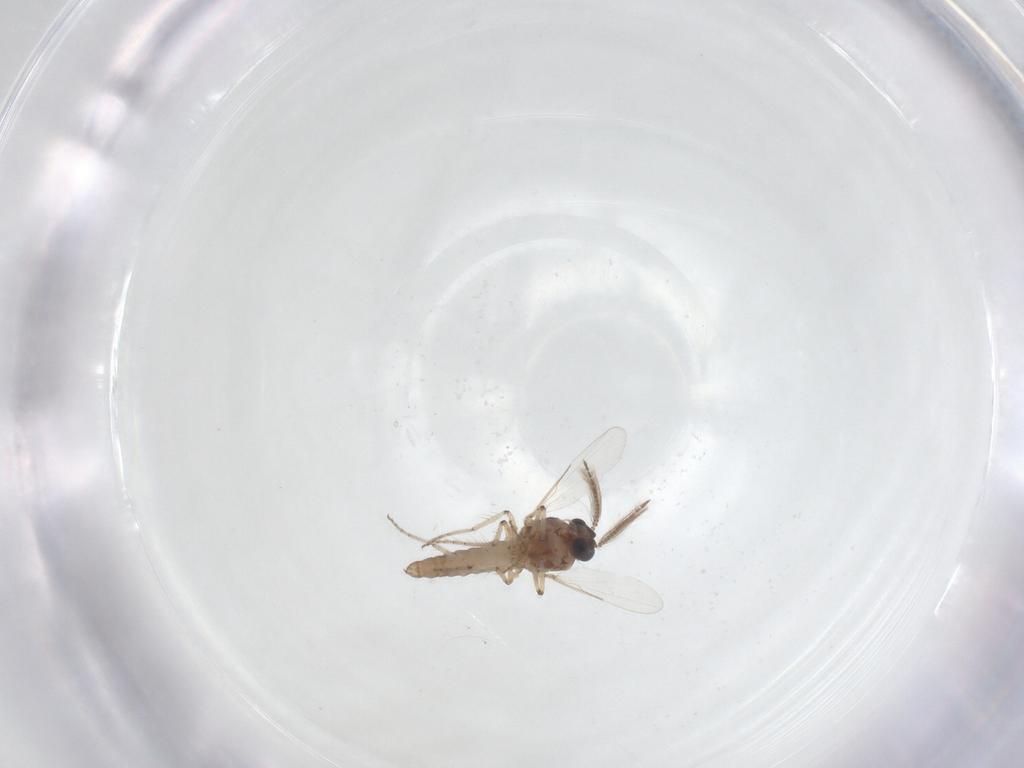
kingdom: Animalia
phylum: Arthropoda
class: Insecta
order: Diptera
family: Ceratopogonidae
